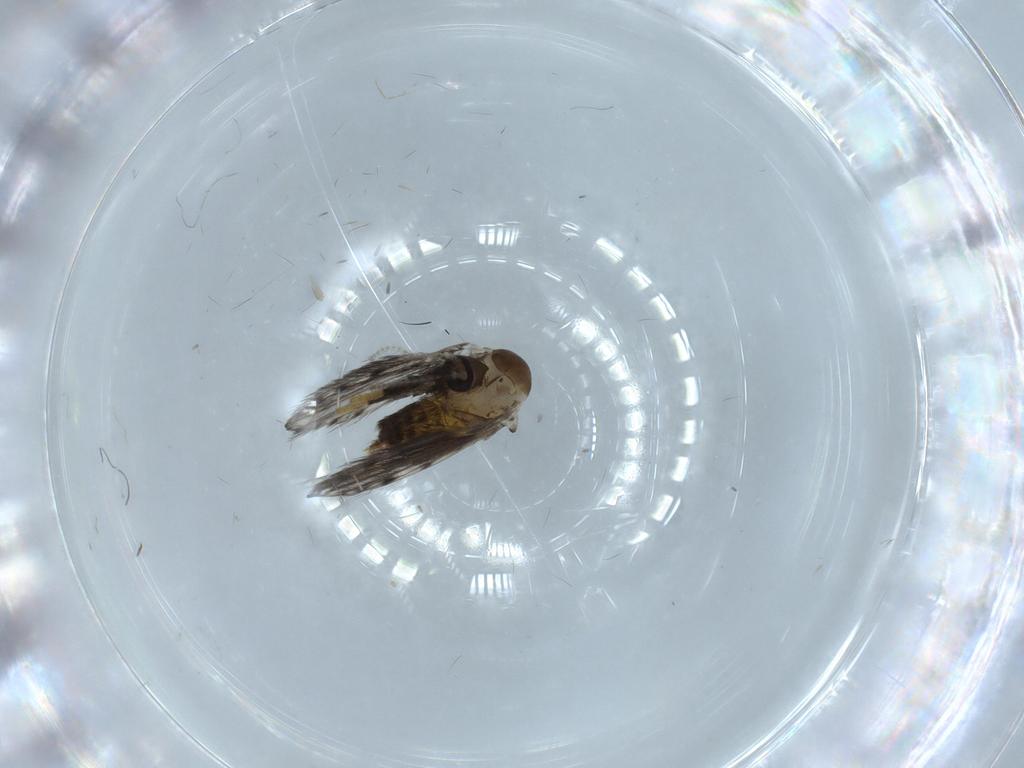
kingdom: Animalia
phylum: Arthropoda
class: Insecta
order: Diptera
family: Psychodidae
